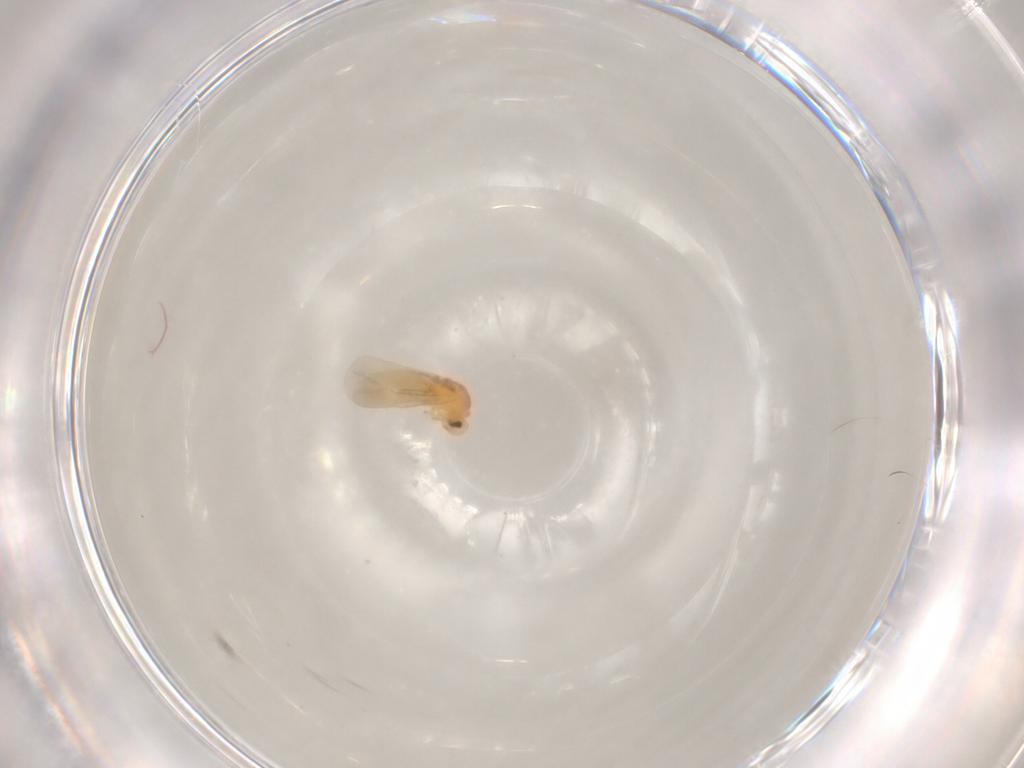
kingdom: Animalia
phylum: Arthropoda
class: Insecta
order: Hemiptera
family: Aleyrodidae
